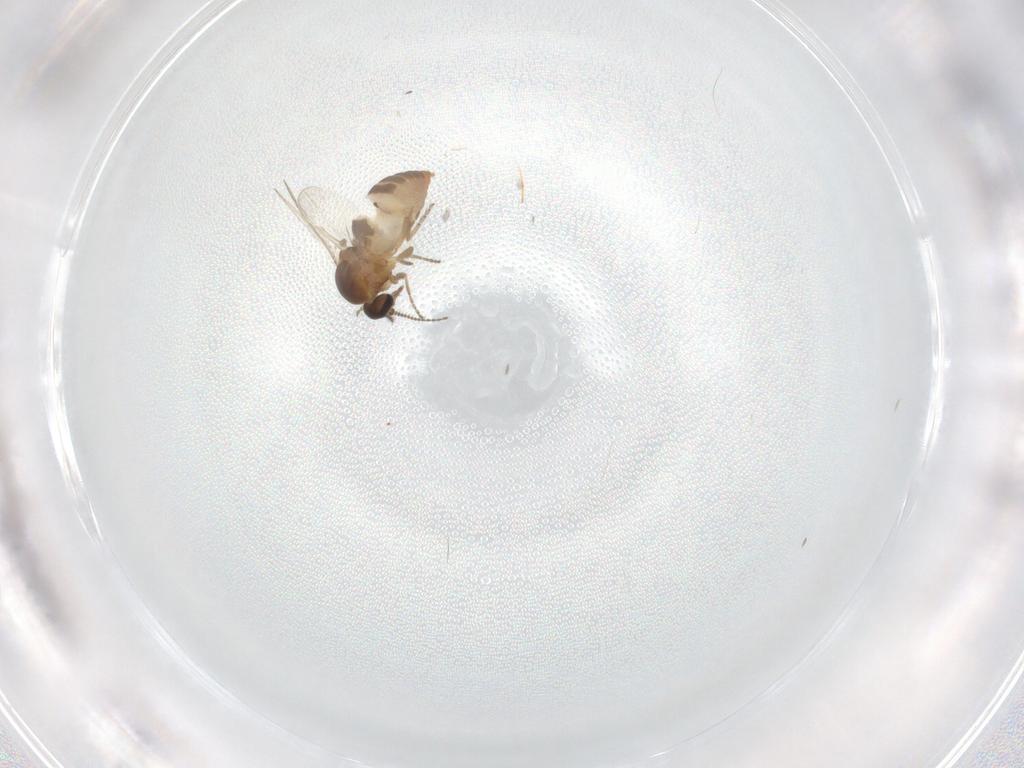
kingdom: Animalia
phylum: Arthropoda
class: Insecta
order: Diptera
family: Ceratopogonidae
